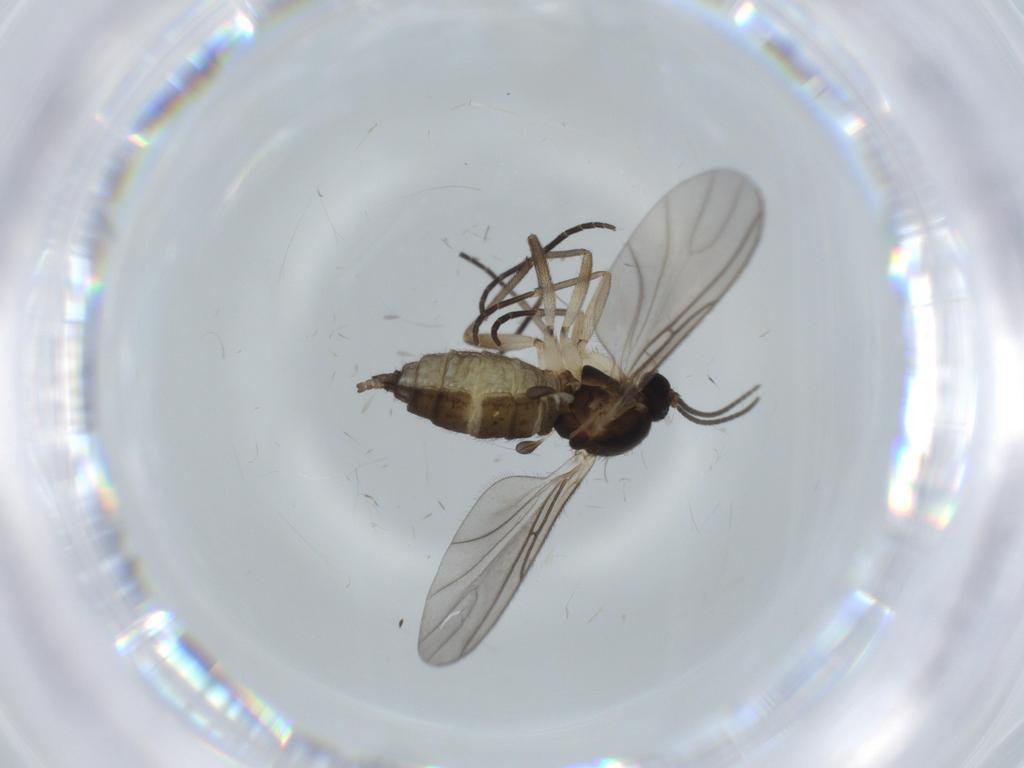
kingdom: Animalia
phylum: Arthropoda
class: Insecta
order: Diptera
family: Sciaridae
